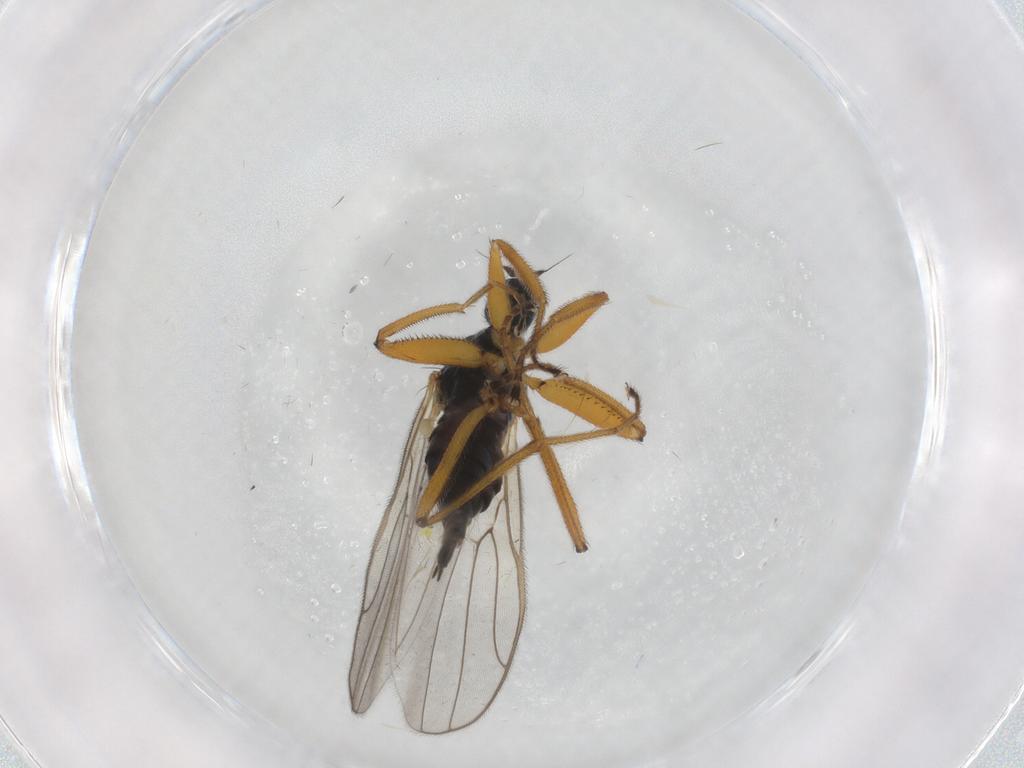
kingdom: Animalia
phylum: Arthropoda
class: Insecta
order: Diptera
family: Hybotidae
